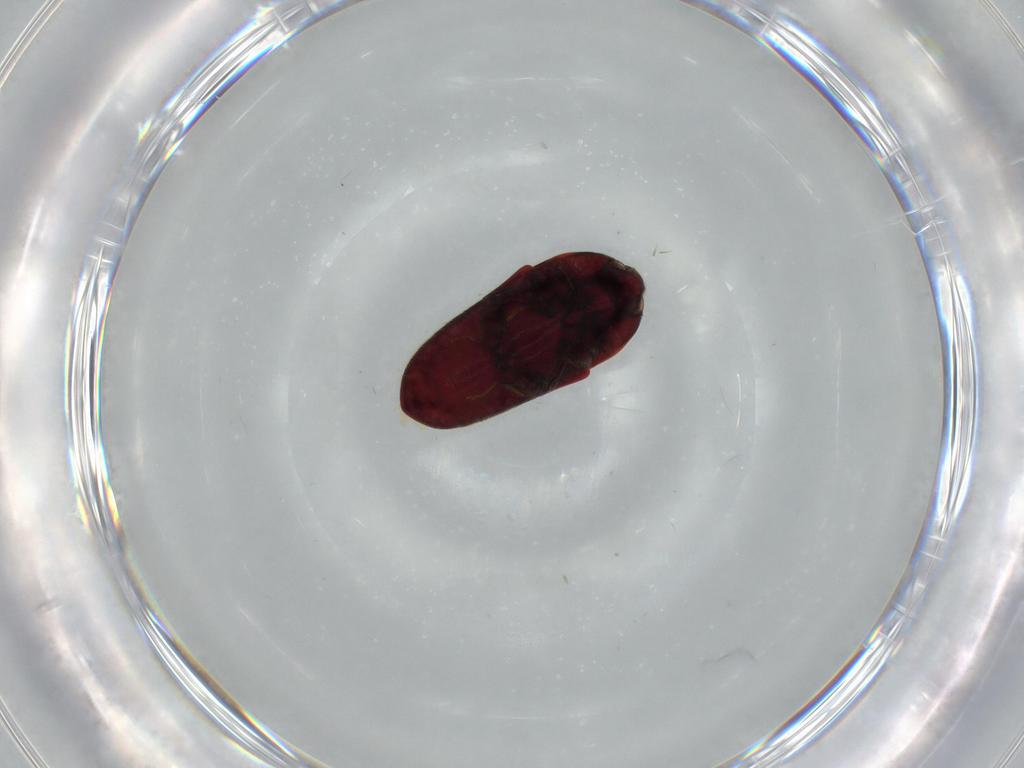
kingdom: Animalia
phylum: Arthropoda
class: Insecta
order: Coleoptera
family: Throscidae
